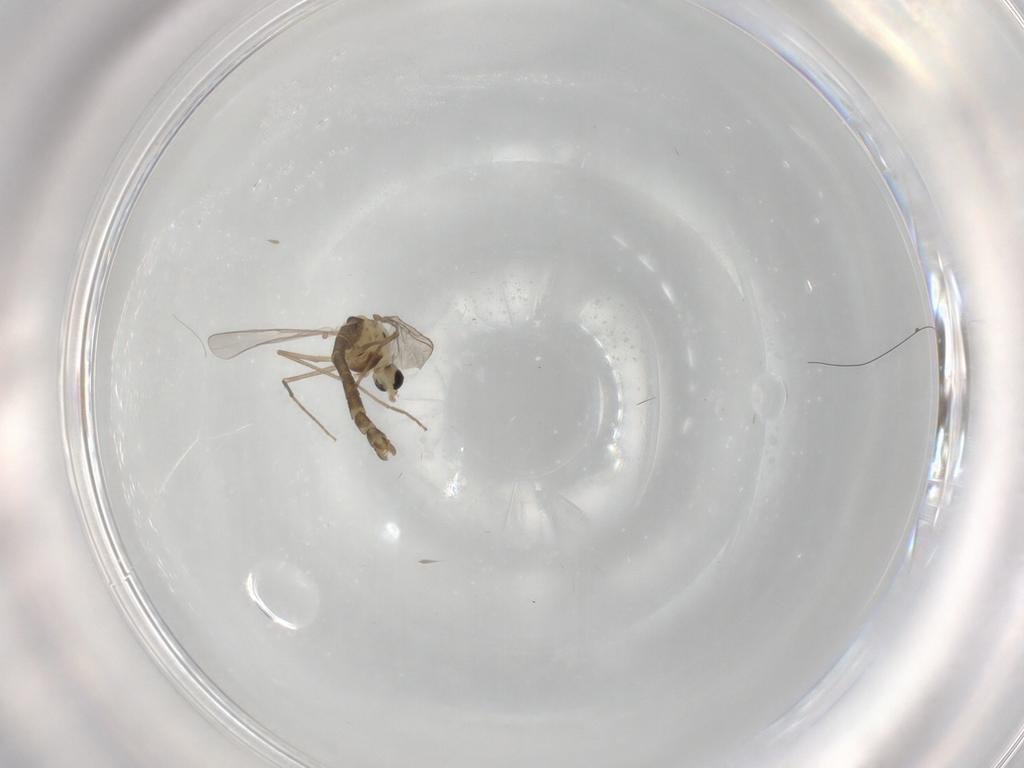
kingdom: Animalia
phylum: Arthropoda
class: Insecta
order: Diptera
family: Chironomidae
